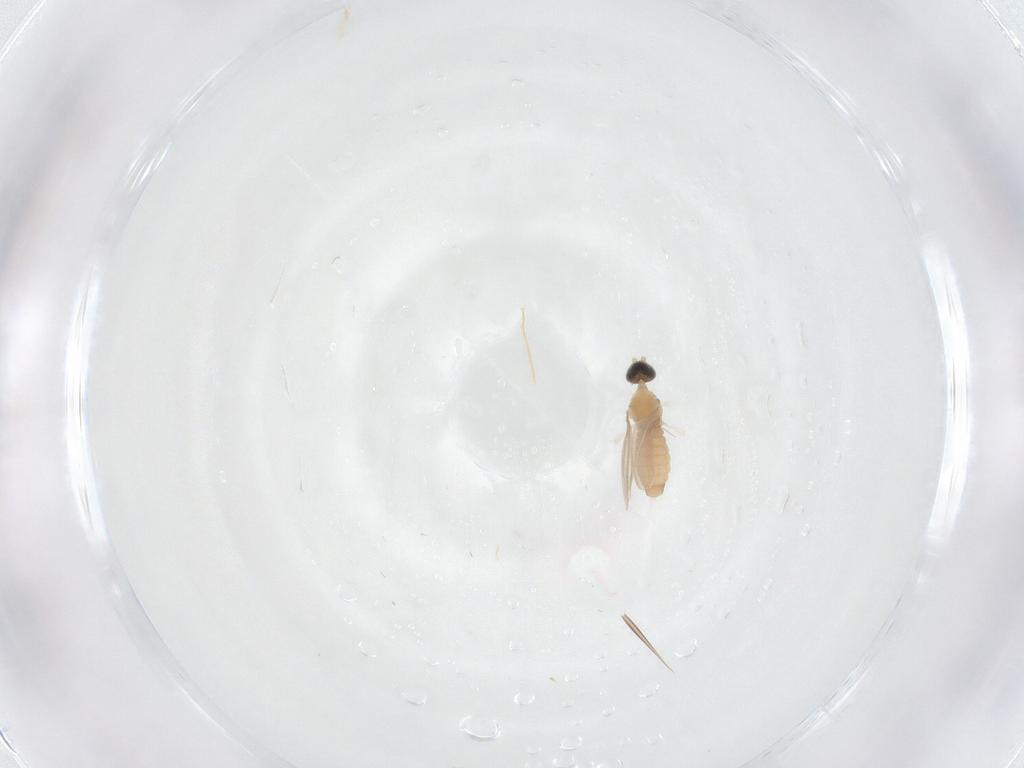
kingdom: Animalia
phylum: Arthropoda
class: Insecta
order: Diptera
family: Cecidomyiidae
